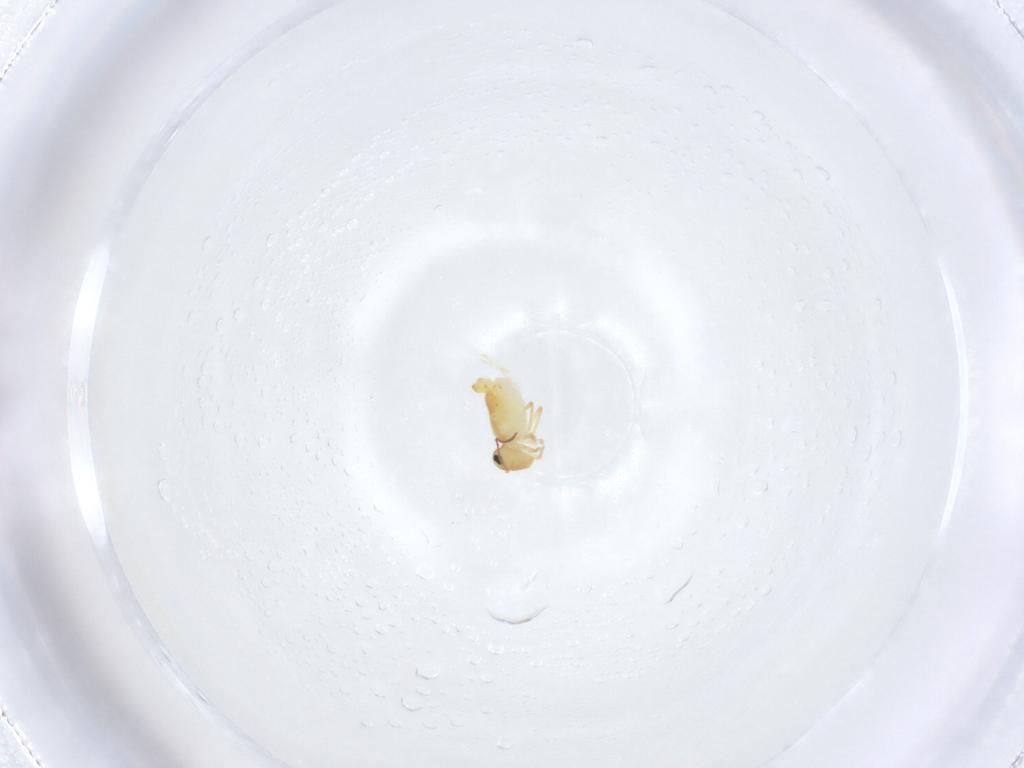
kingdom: Animalia
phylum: Arthropoda
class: Collembola
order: Symphypleona
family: Bourletiellidae
